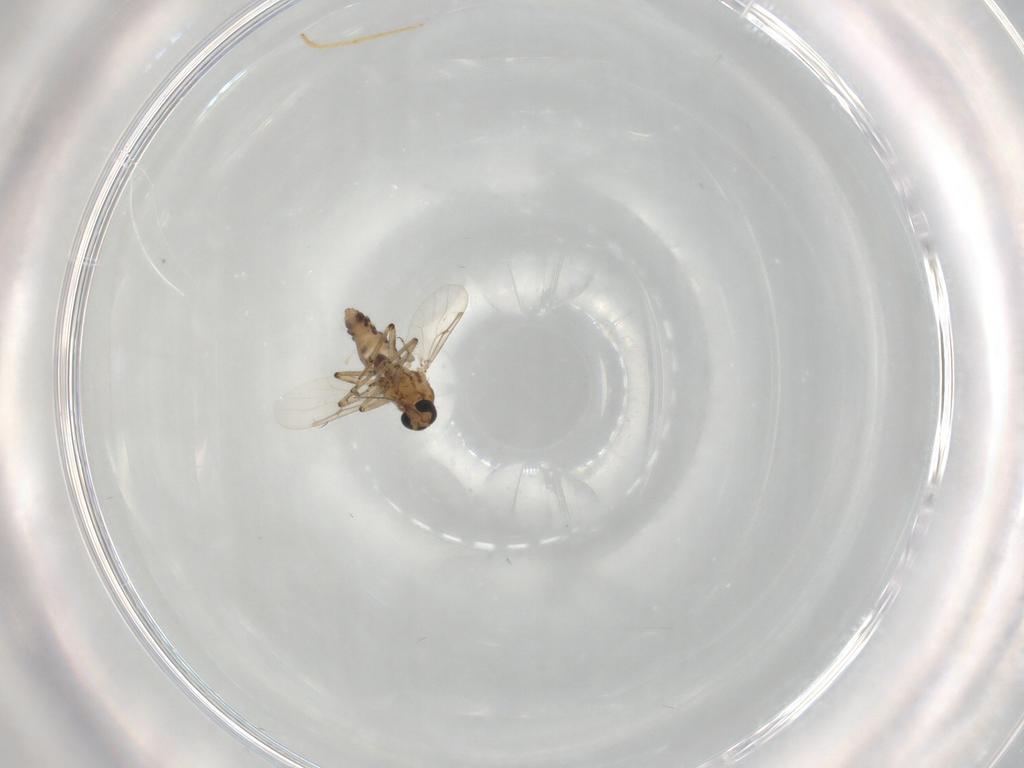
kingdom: Animalia
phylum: Arthropoda
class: Insecta
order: Diptera
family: Ceratopogonidae
